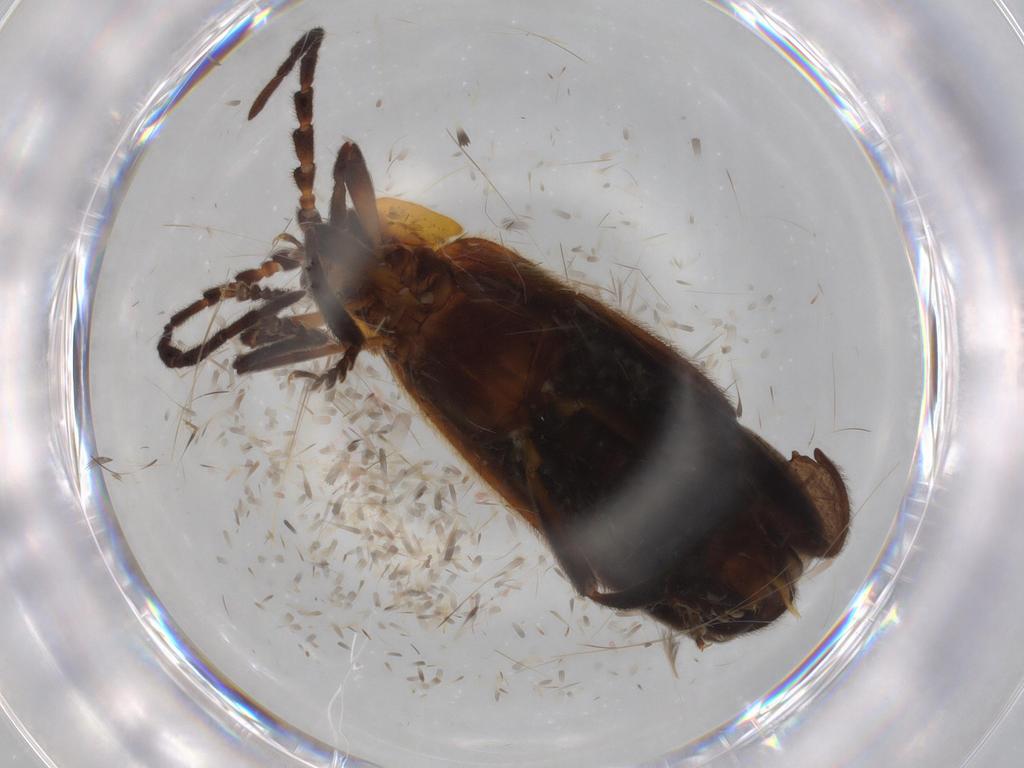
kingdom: Animalia
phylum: Arthropoda
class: Insecta
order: Coleoptera
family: Lycidae
